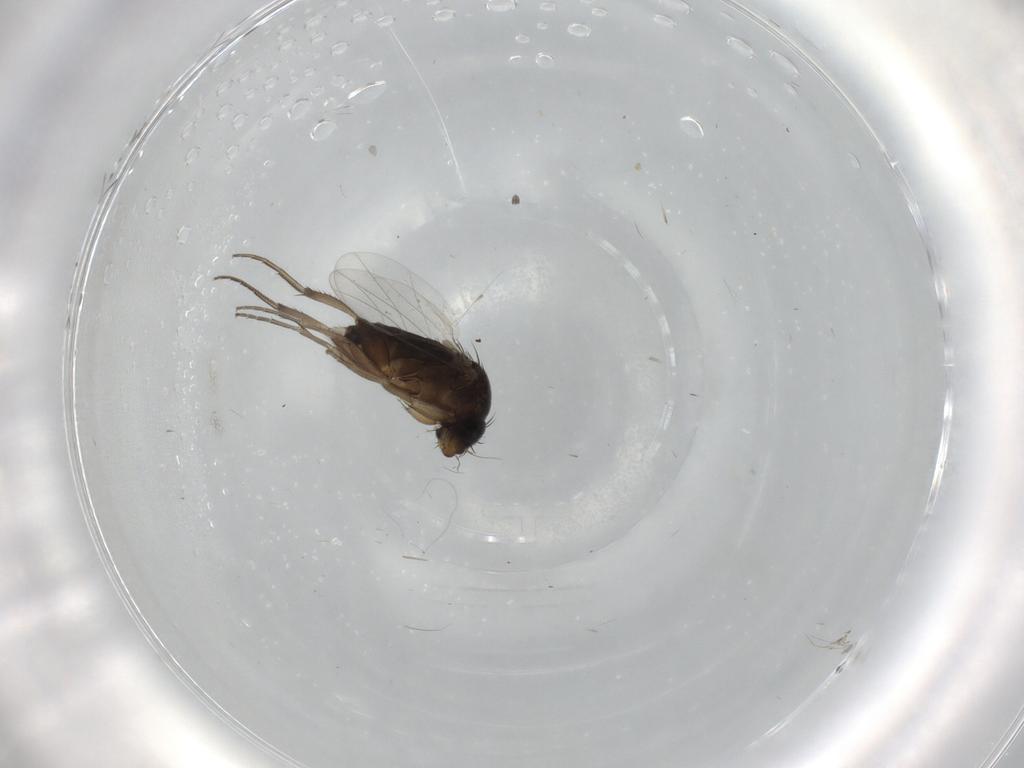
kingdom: Animalia
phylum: Arthropoda
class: Insecta
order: Diptera
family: Phoridae
